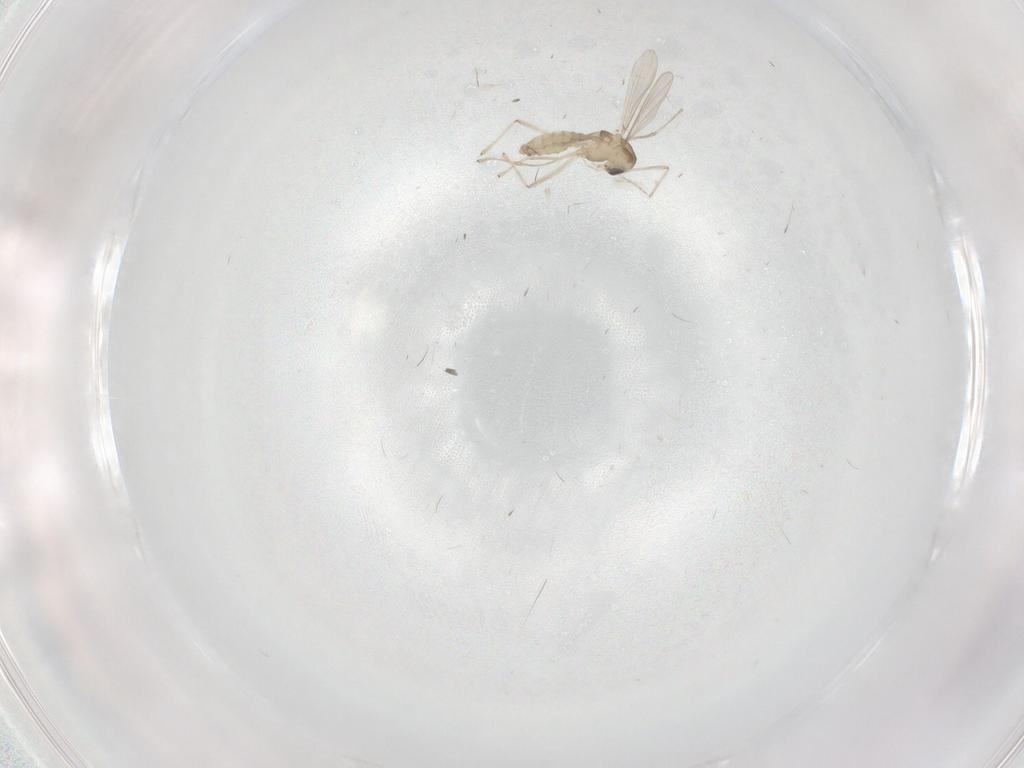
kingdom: Animalia
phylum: Arthropoda
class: Insecta
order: Diptera
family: Chironomidae
